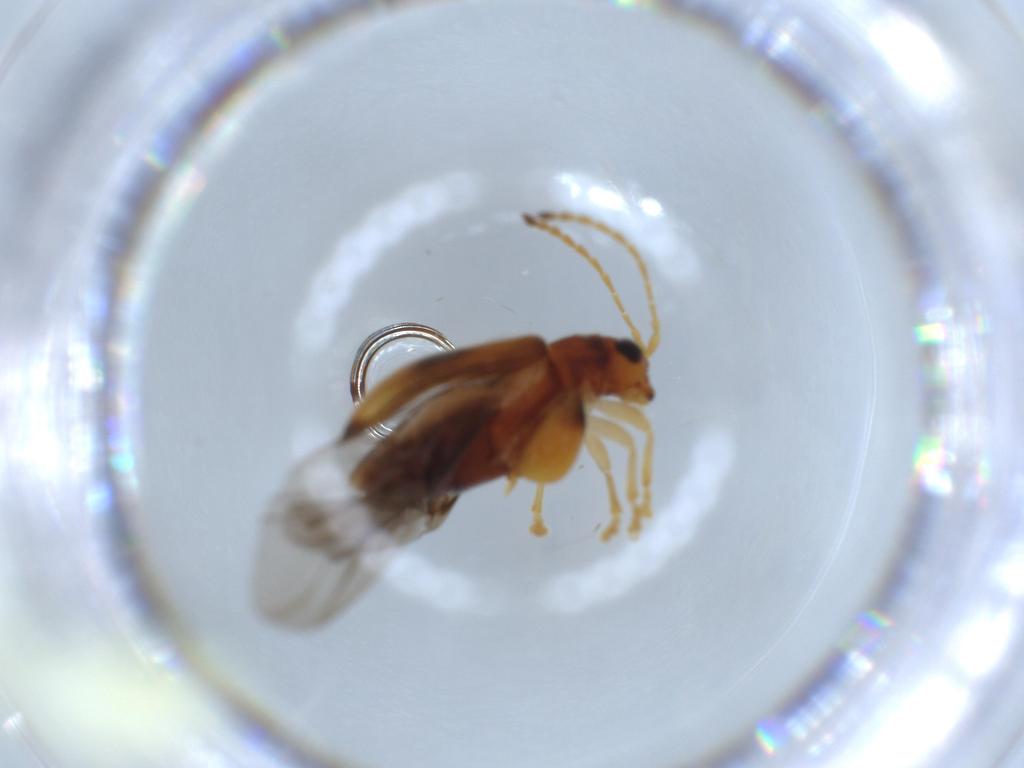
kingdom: Animalia
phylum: Arthropoda
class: Insecta
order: Coleoptera
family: Chrysomelidae
